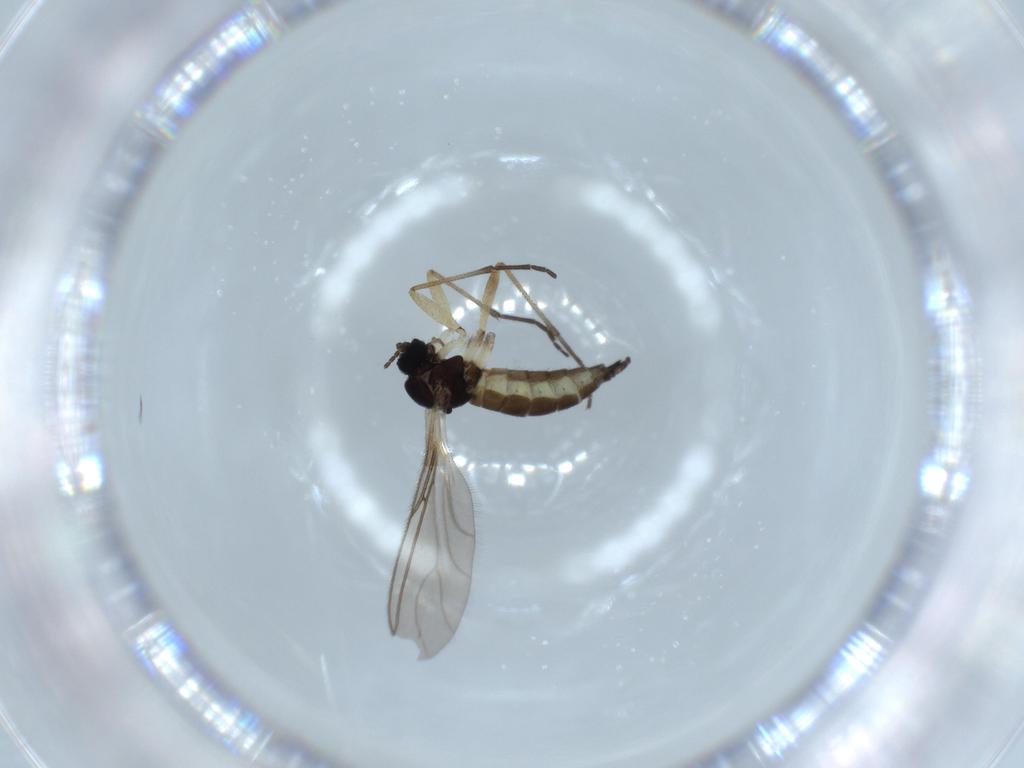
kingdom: Animalia
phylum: Arthropoda
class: Insecta
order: Diptera
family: Sciaridae
